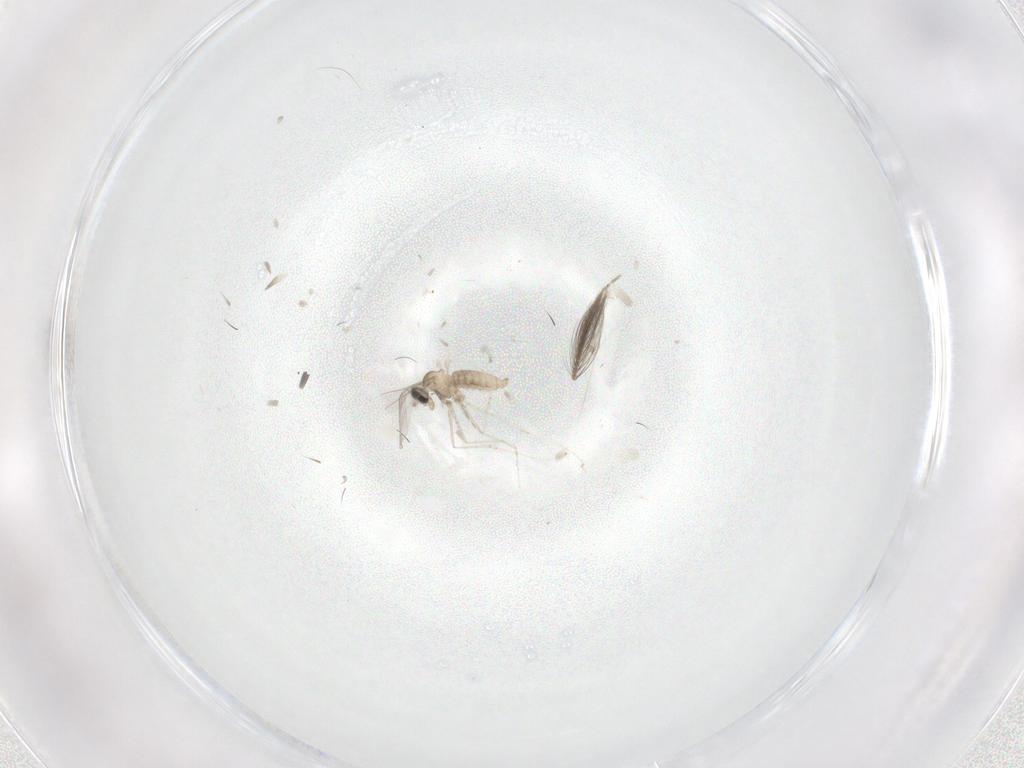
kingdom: Animalia
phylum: Arthropoda
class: Insecta
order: Diptera
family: Ceratopogonidae
